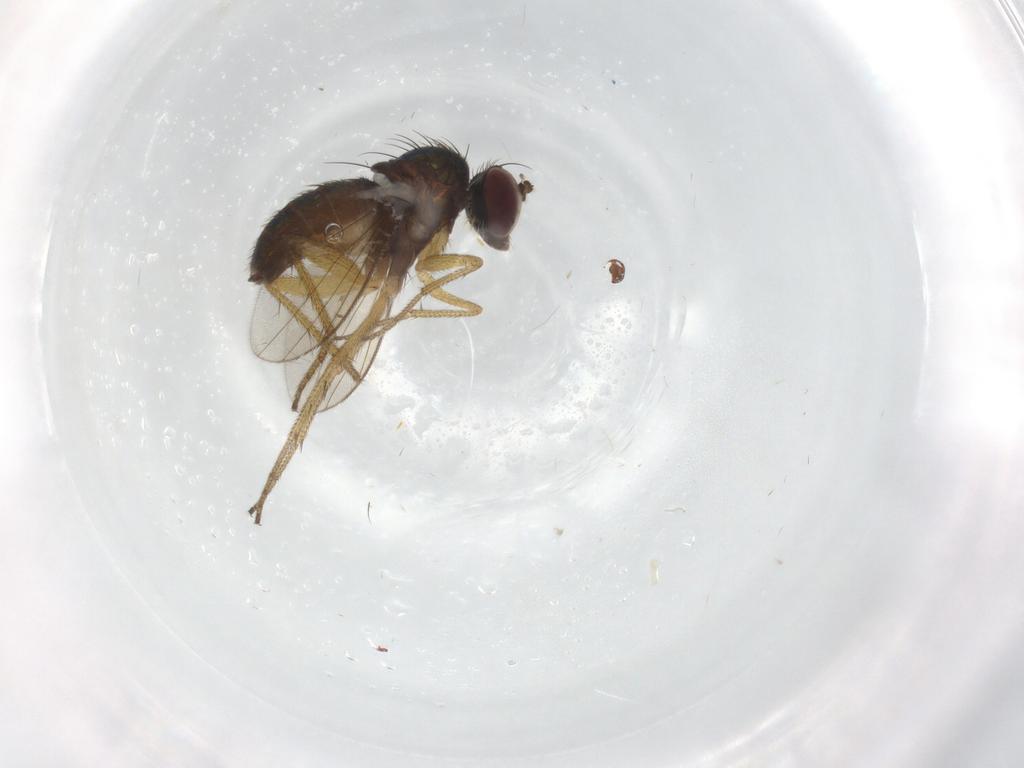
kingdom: Animalia
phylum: Arthropoda
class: Insecta
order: Diptera
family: Dolichopodidae
